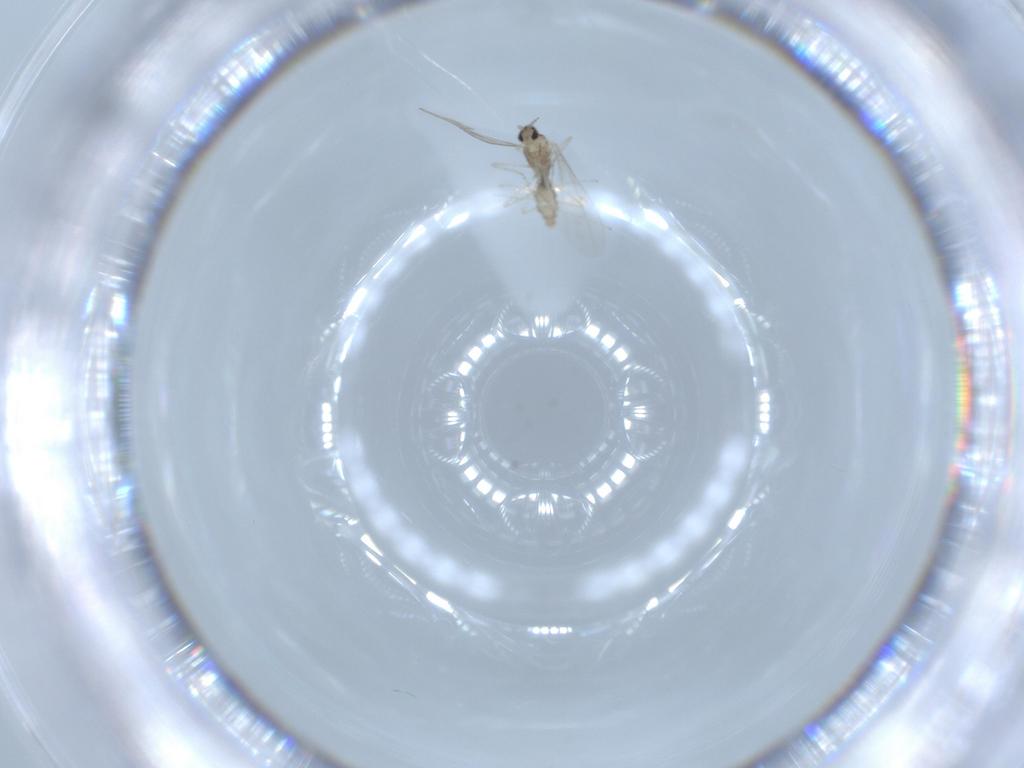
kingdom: Animalia
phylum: Arthropoda
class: Insecta
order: Diptera
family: Cecidomyiidae
